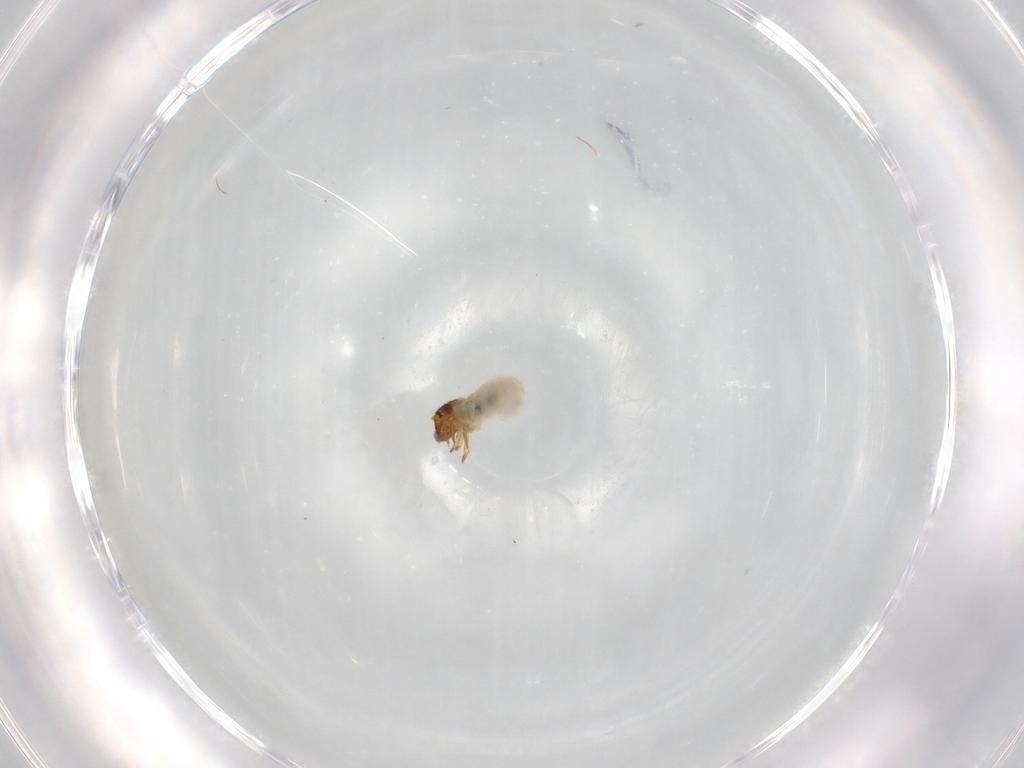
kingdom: Animalia
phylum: Arthropoda
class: Insecta
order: Coleoptera
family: Chrysomelidae
